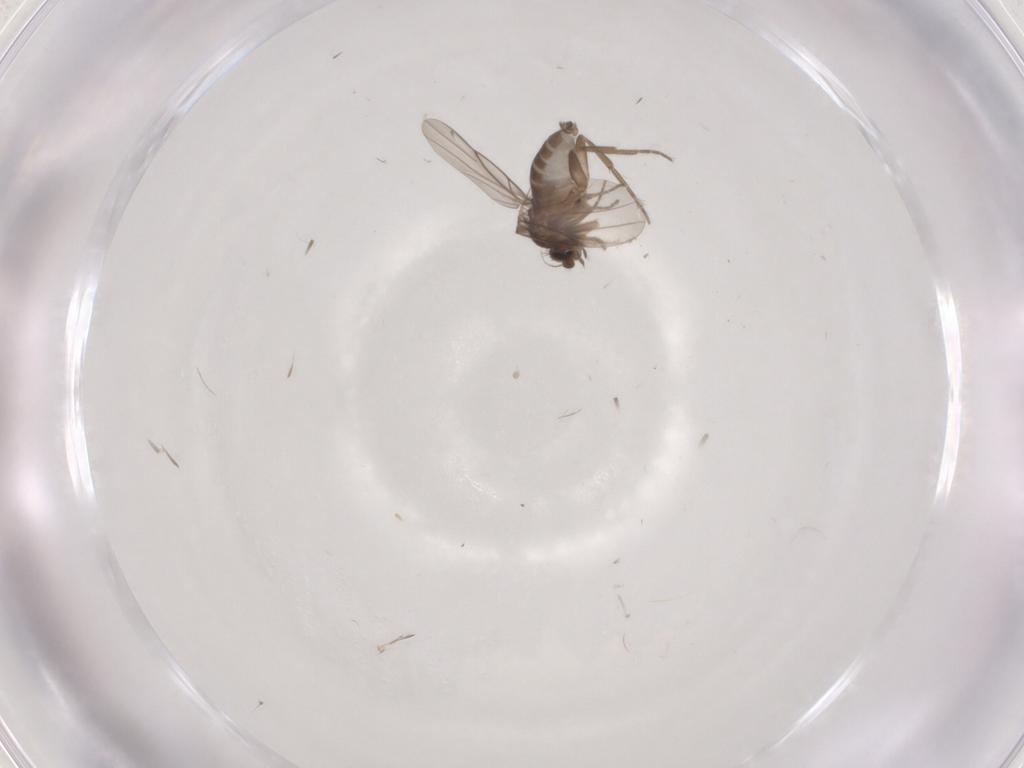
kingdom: Animalia
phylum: Arthropoda
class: Insecta
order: Diptera
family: Phoridae
